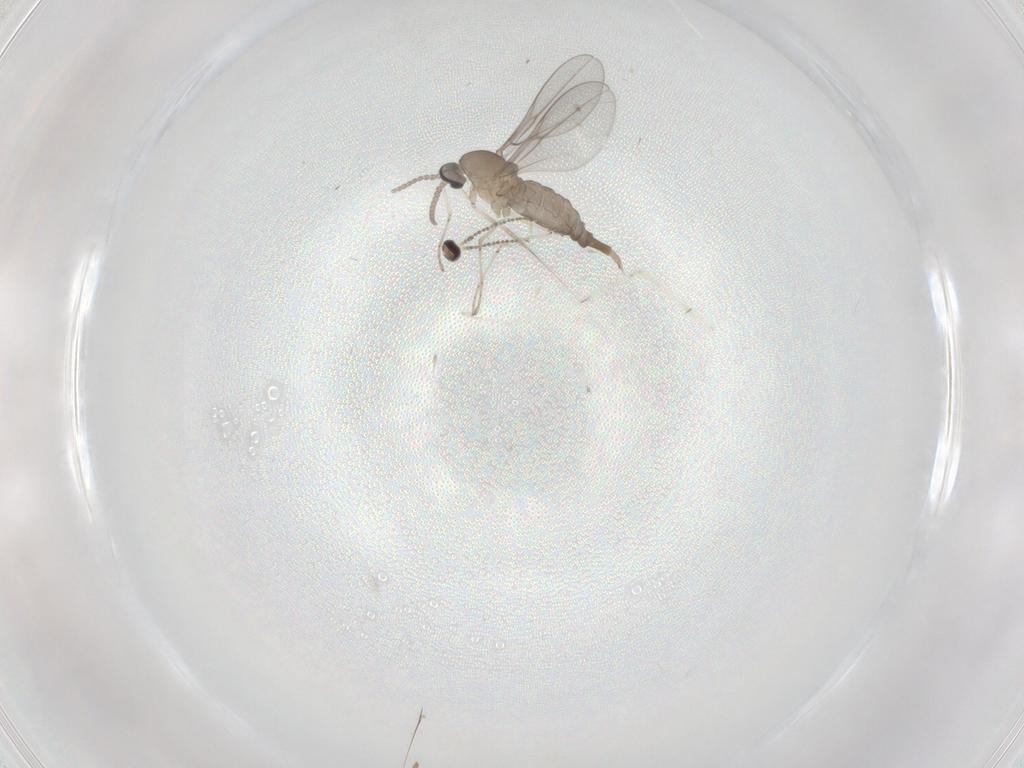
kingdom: Animalia
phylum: Arthropoda
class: Insecta
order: Diptera
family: Cecidomyiidae
